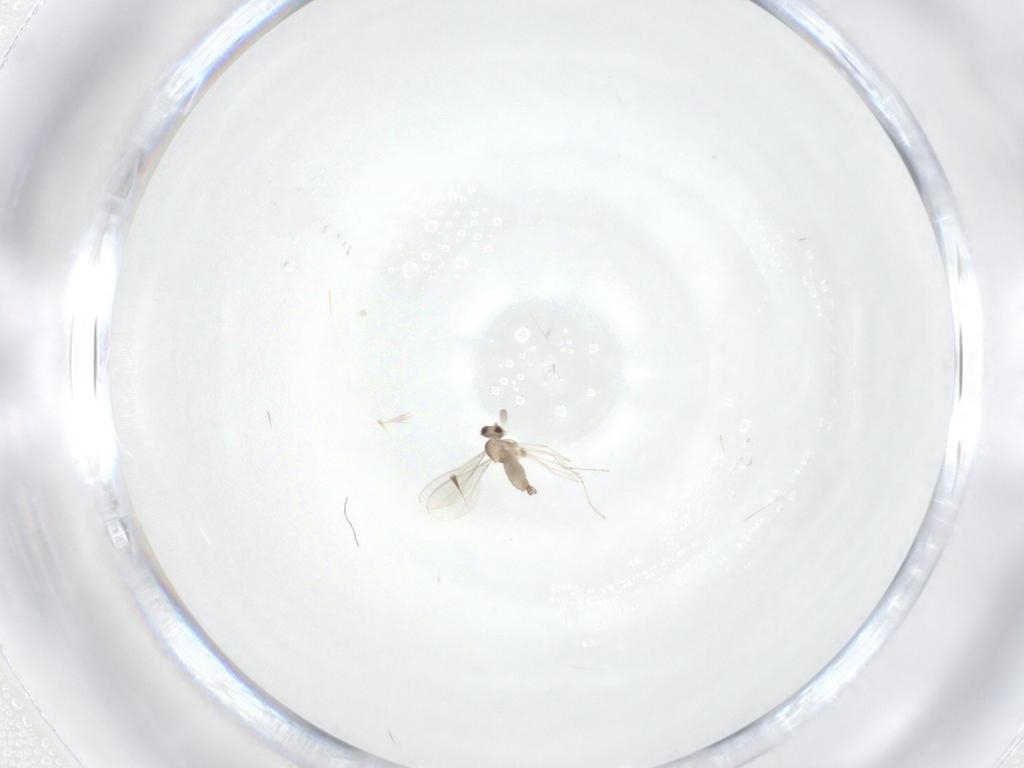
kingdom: Animalia
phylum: Arthropoda
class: Insecta
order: Diptera
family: Cecidomyiidae
